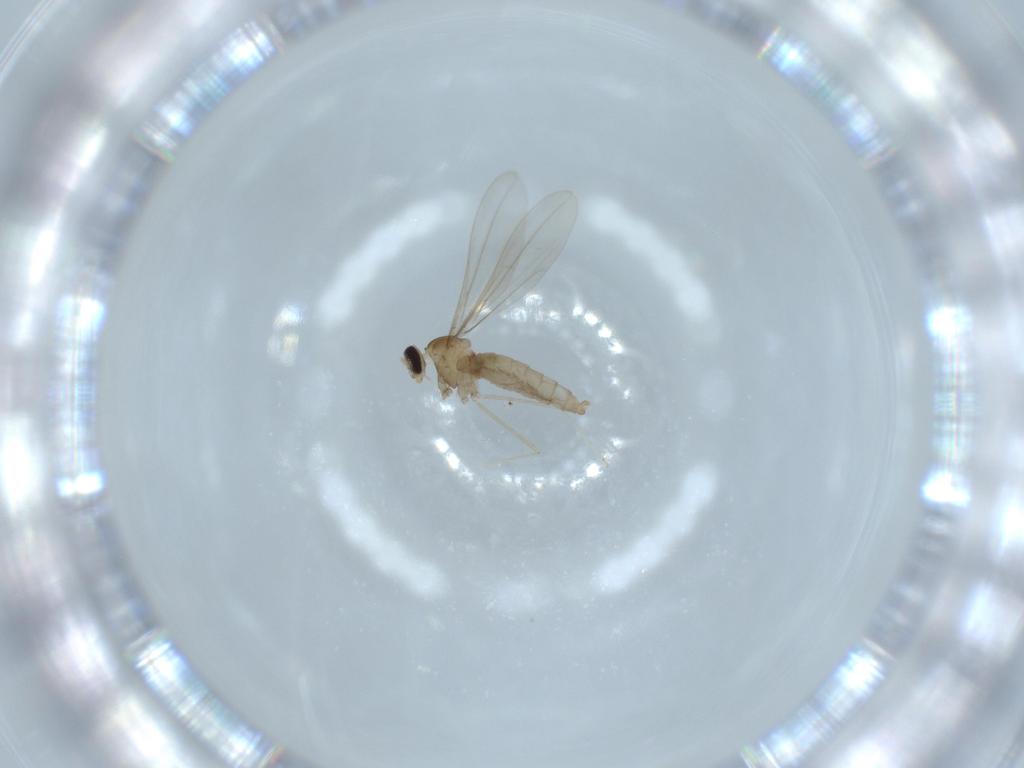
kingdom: Animalia
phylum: Arthropoda
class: Insecta
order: Diptera
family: Cecidomyiidae
